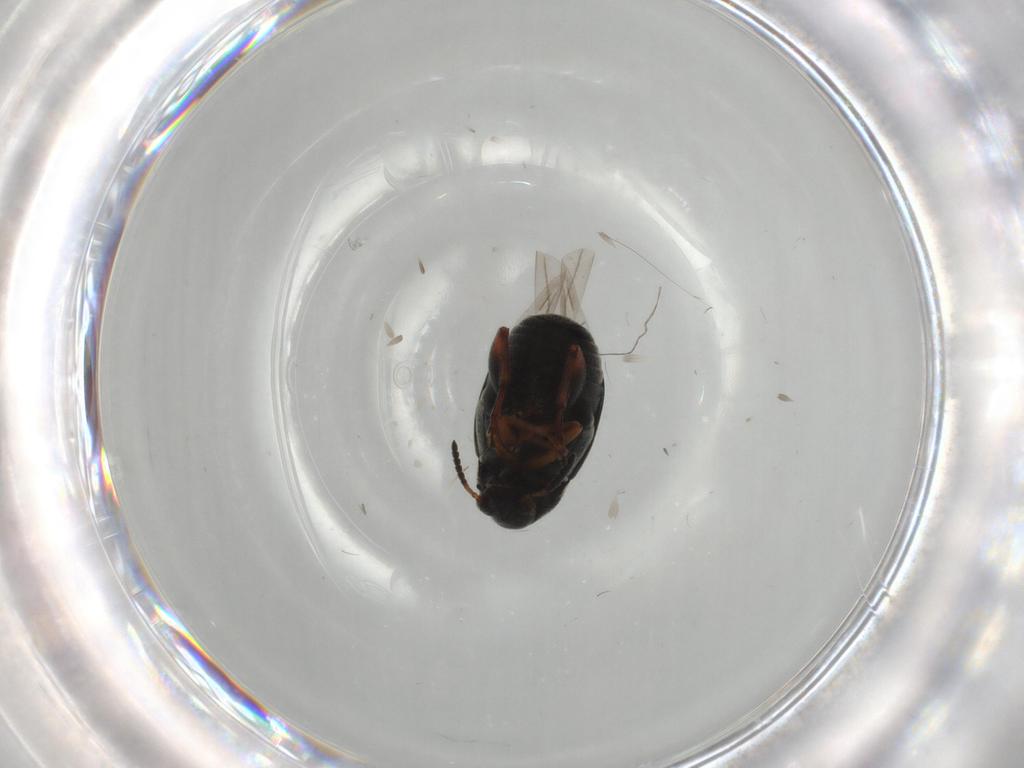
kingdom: Animalia
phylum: Arthropoda
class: Insecta
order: Coleoptera
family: Chrysomelidae
